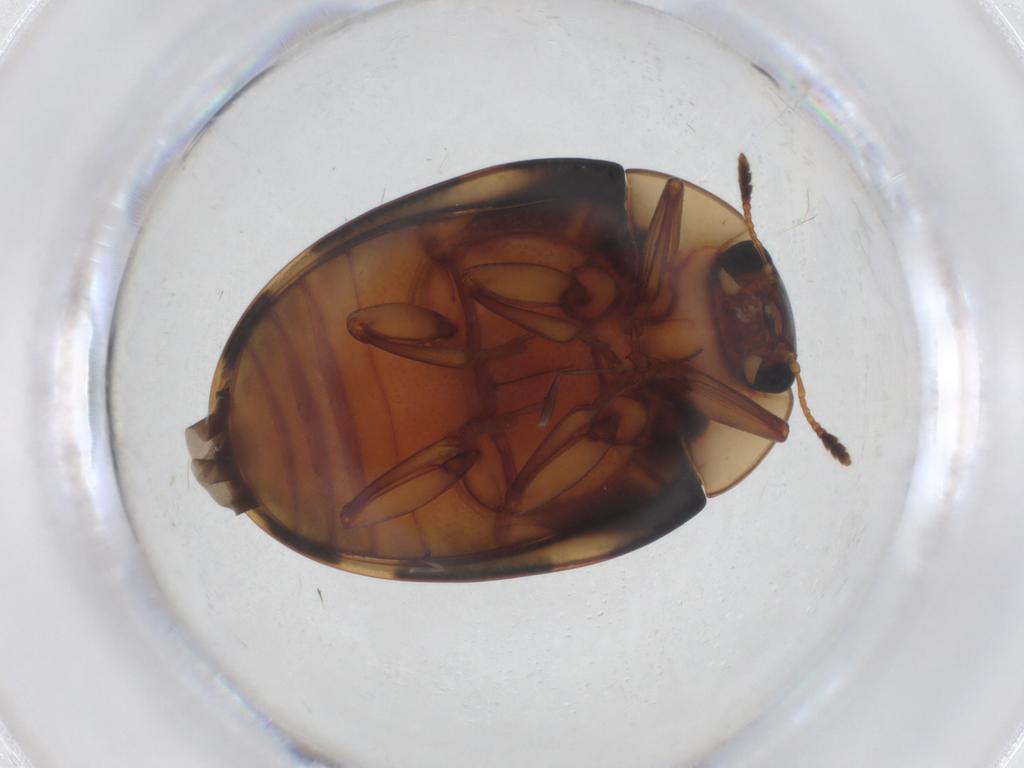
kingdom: Animalia
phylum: Arthropoda
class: Insecta
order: Coleoptera
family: Erotylidae
